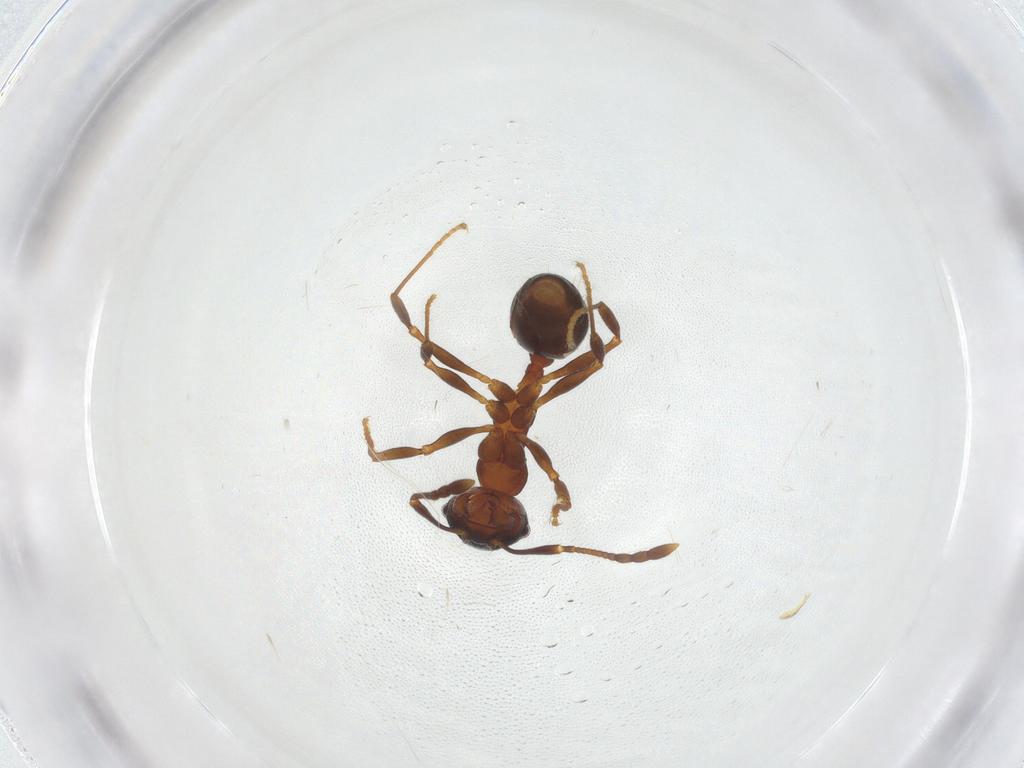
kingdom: Animalia
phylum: Arthropoda
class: Insecta
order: Hymenoptera
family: Formicidae
